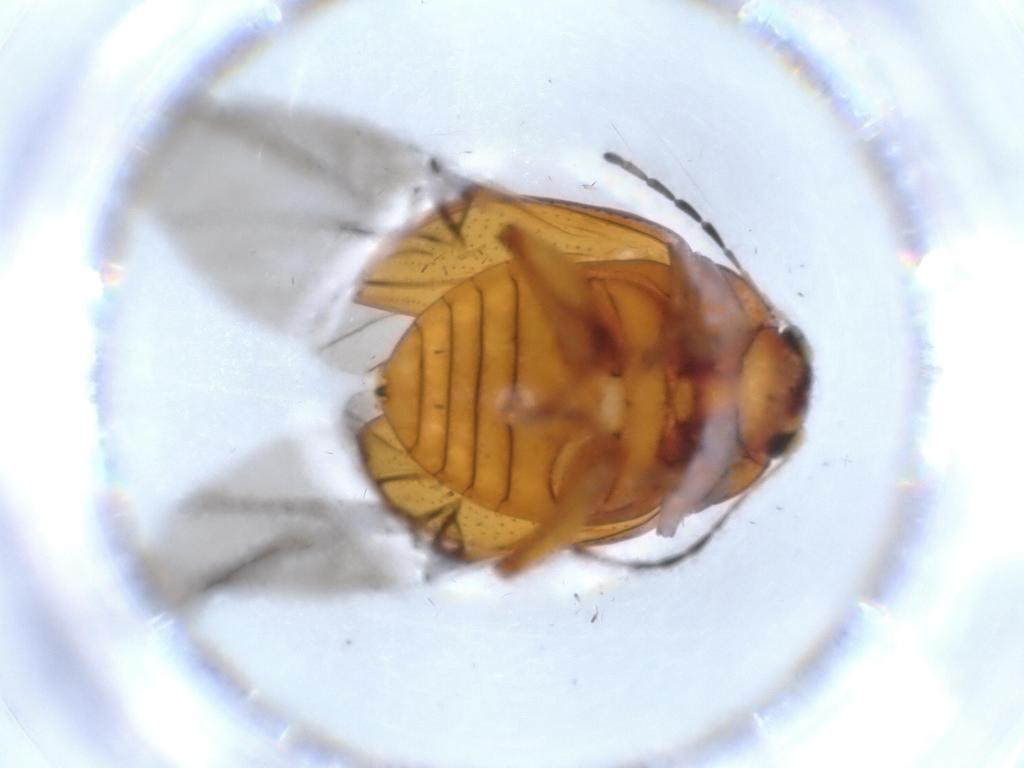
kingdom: Animalia
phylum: Arthropoda
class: Insecta
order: Coleoptera
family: Chrysomelidae
